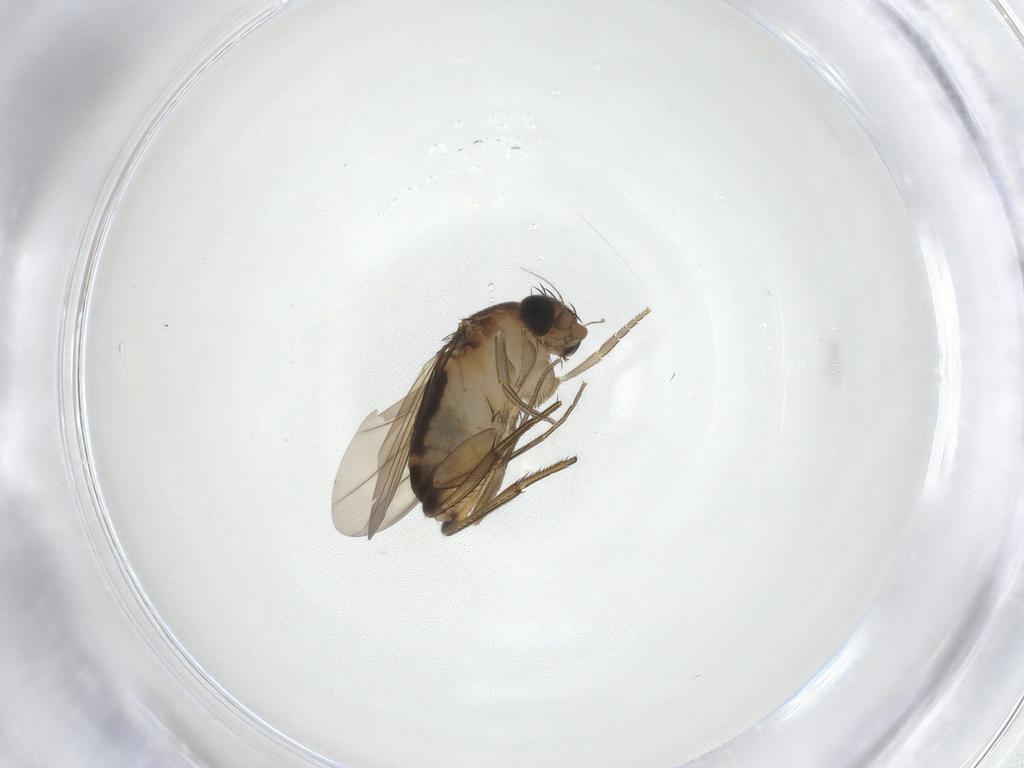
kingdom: Animalia
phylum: Arthropoda
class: Insecta
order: Diptera
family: Phoridae
